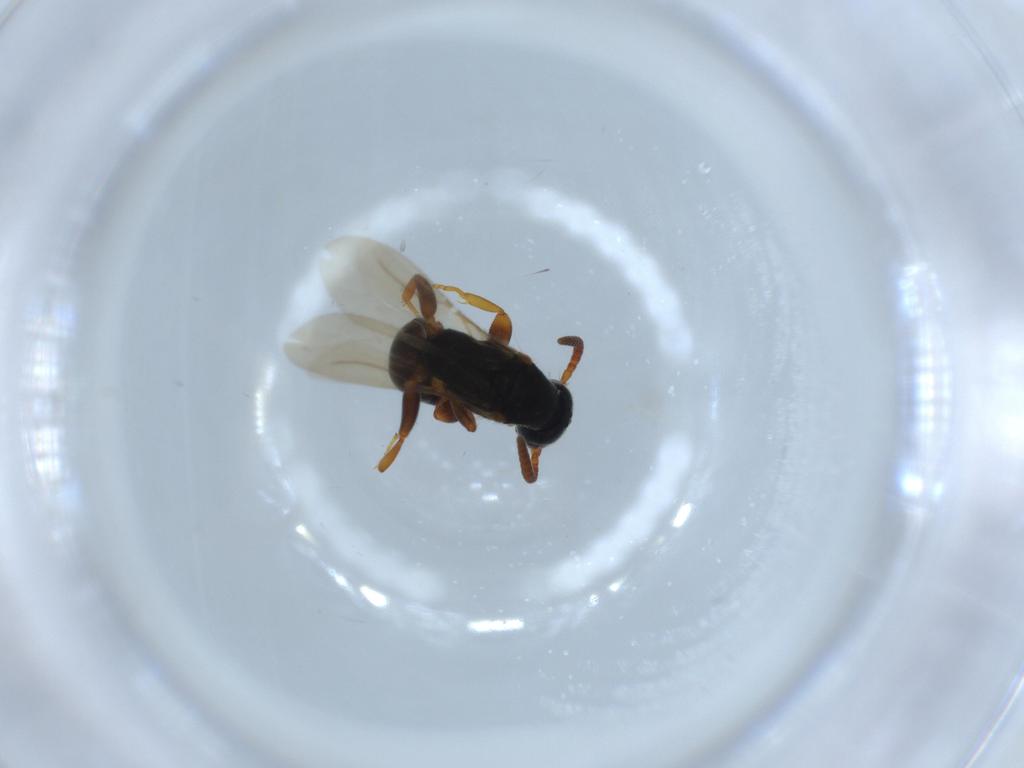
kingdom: Animalia
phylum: Arthropoda
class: Insecta
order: Hymenoptera
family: Bethylidae
